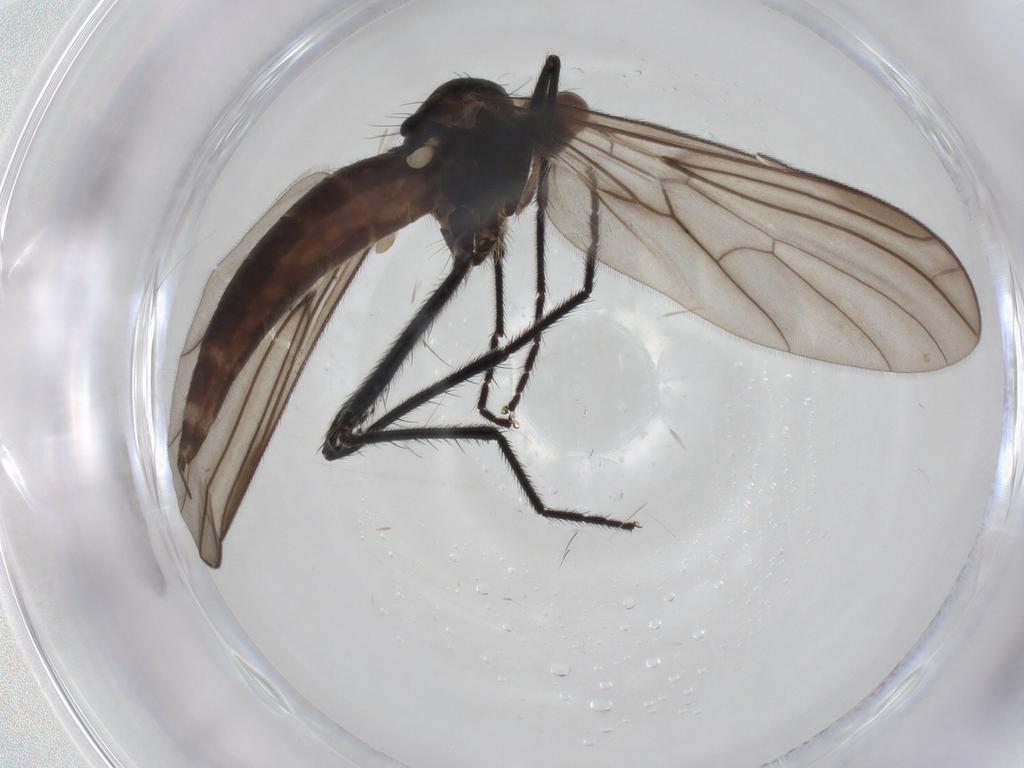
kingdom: Animalia
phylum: Arthropoda
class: Insecta
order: Diptera
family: Empididae
